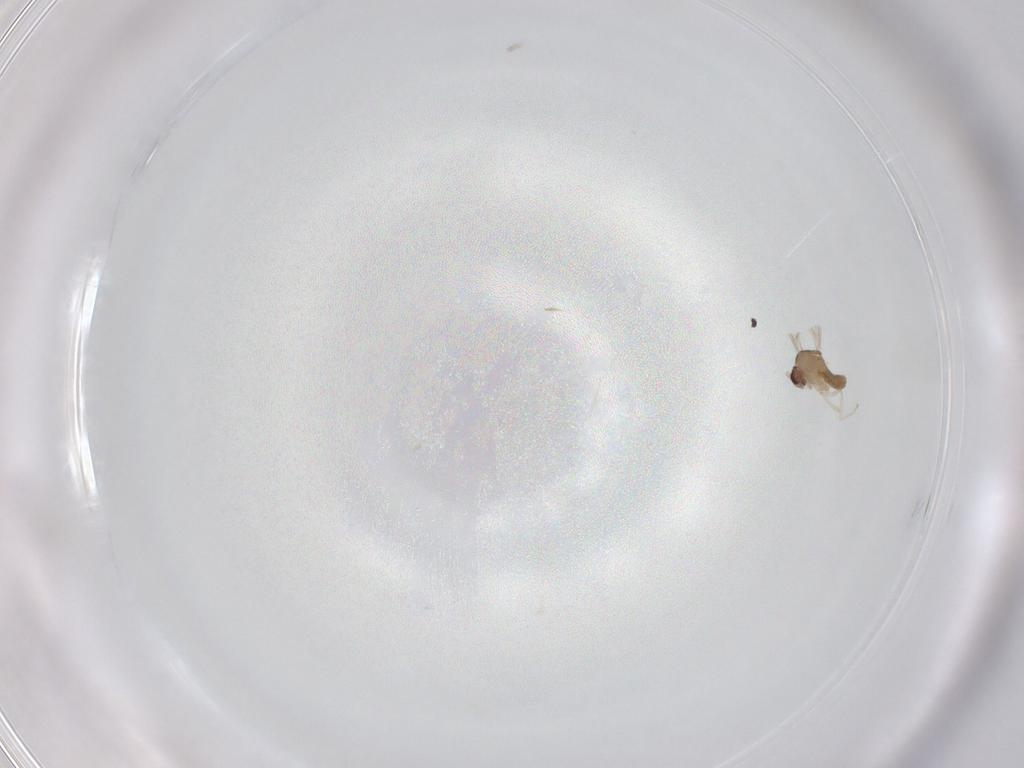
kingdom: Animalia
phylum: Arthropoda
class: Insecta
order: Diptera
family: Cecidomyiidae
